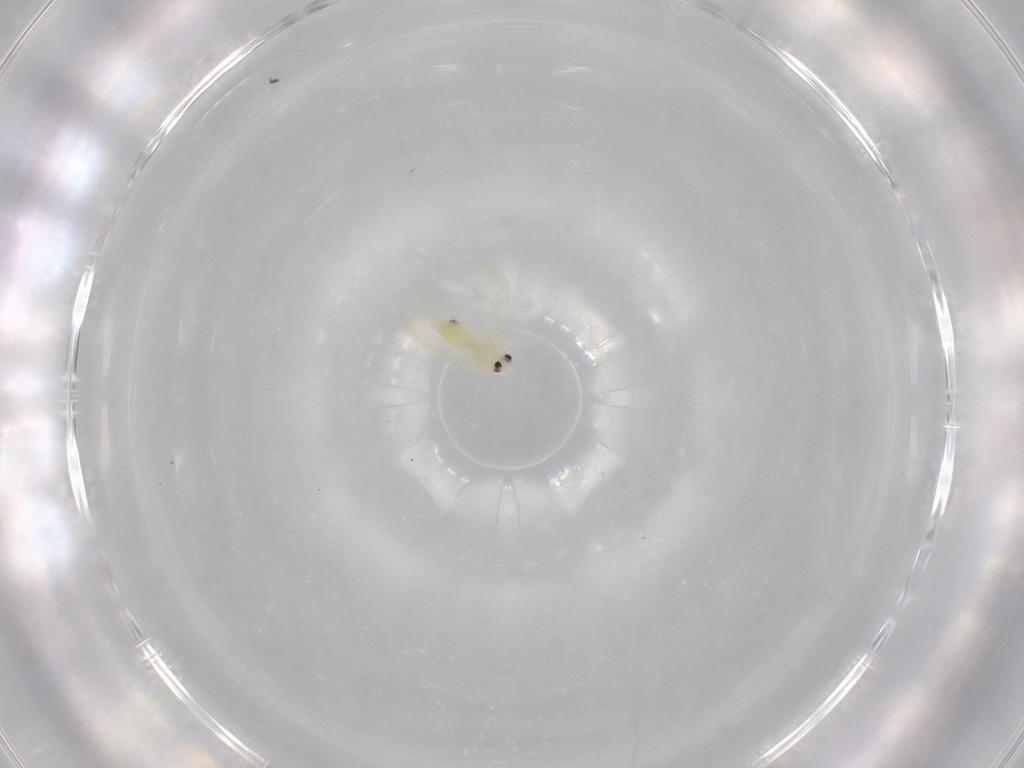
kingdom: Animalia
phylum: Arthropoda
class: Insecta
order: Hemiptera
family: Aleyrodidae
